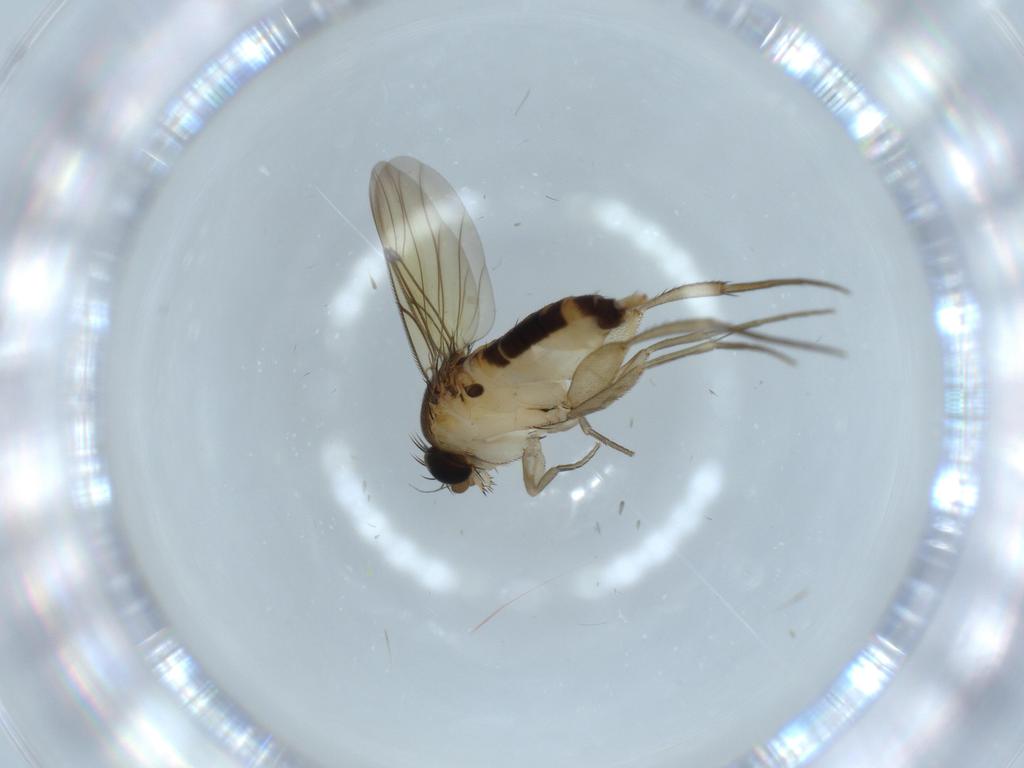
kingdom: Animalia
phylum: Arthropoda
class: Insecta
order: Diptera
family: Phoridae
